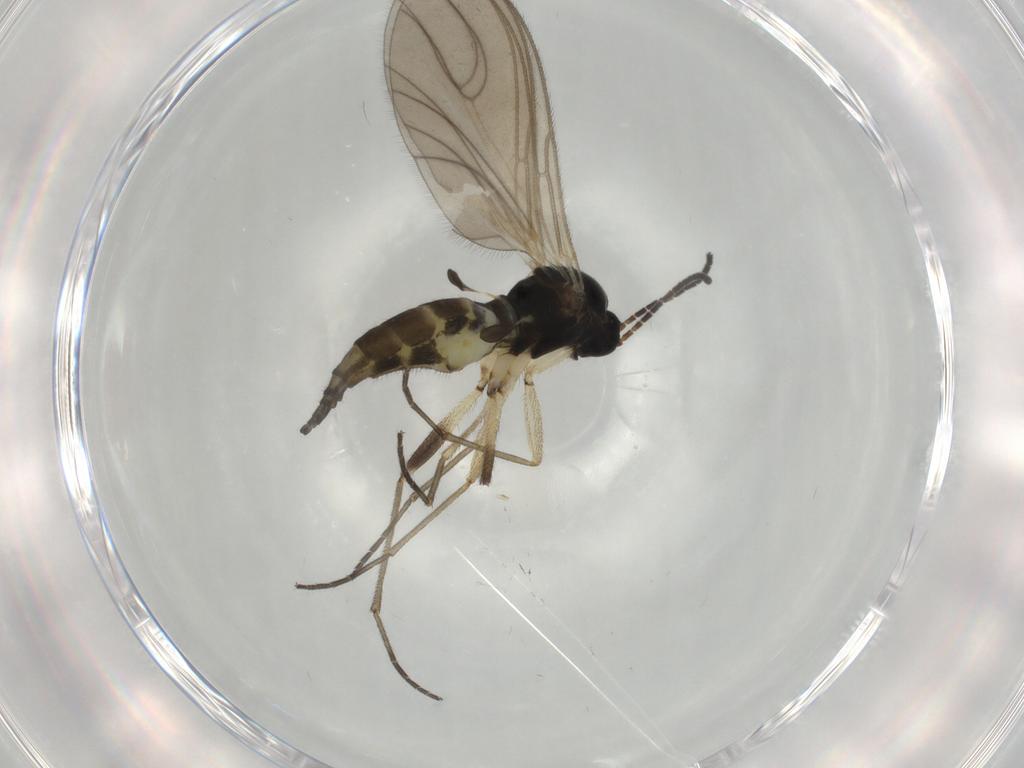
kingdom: Animalia
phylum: Arthropoda
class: Insecta
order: Diptera
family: Sciaridae
